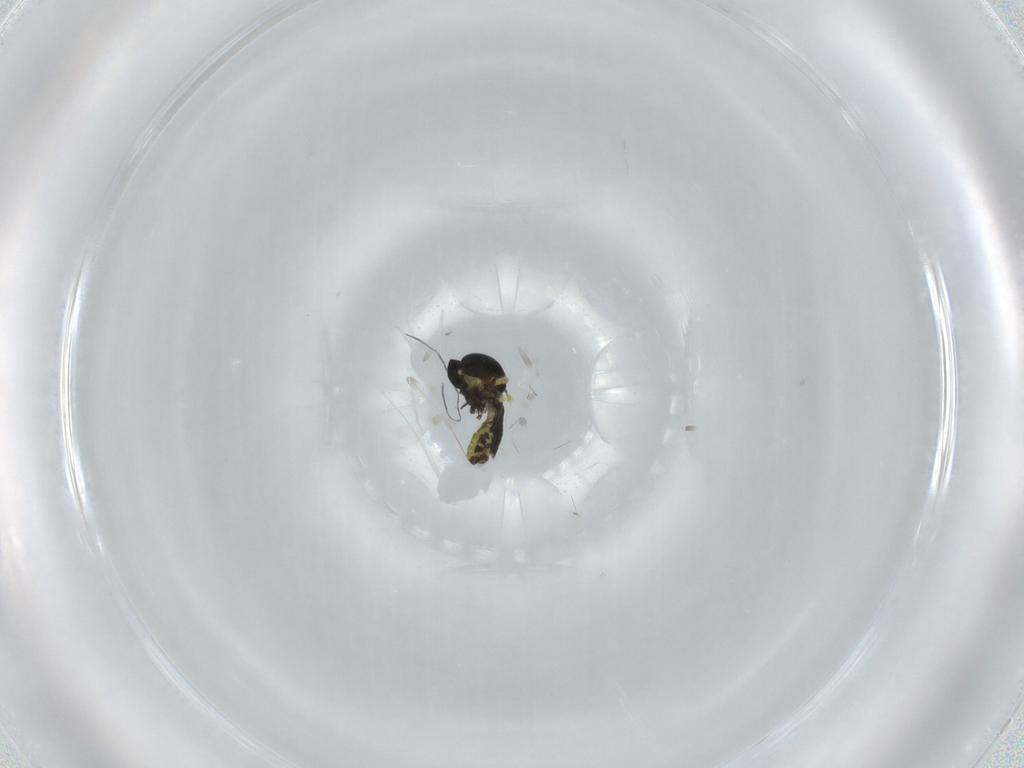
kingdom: Animalia
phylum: Arthropoda
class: Insecta
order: Diptera
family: Ceratopogonidae
